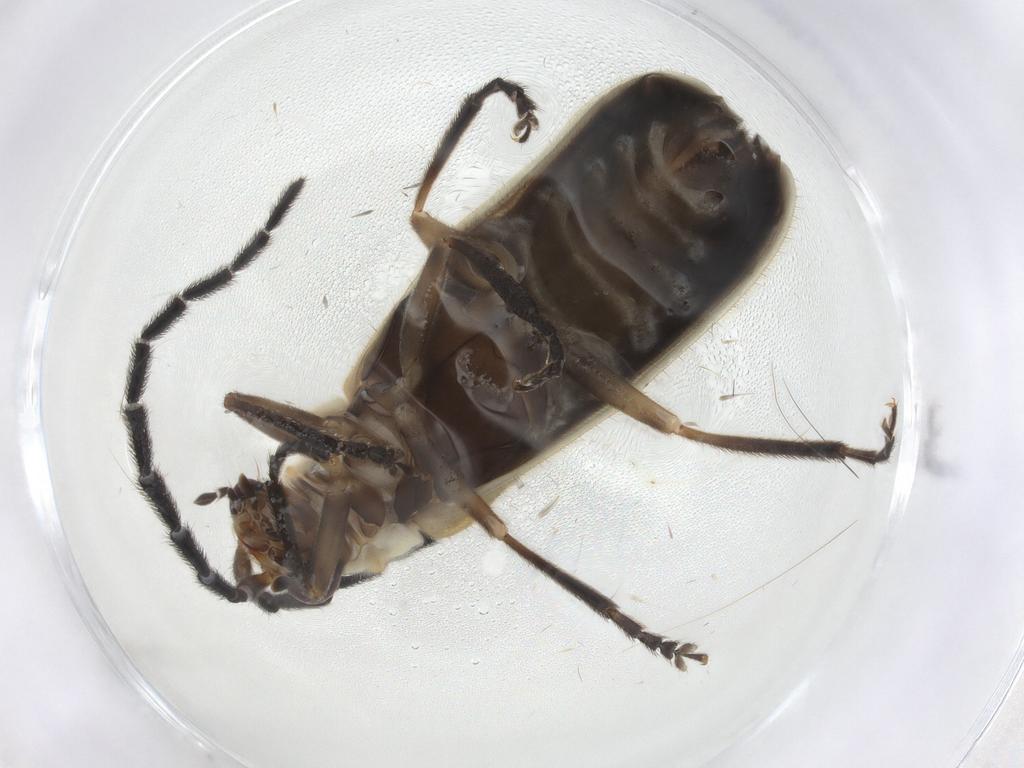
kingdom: Animalia
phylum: Arthropoda
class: Insecta
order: Coleoptera
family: Cantharidae
